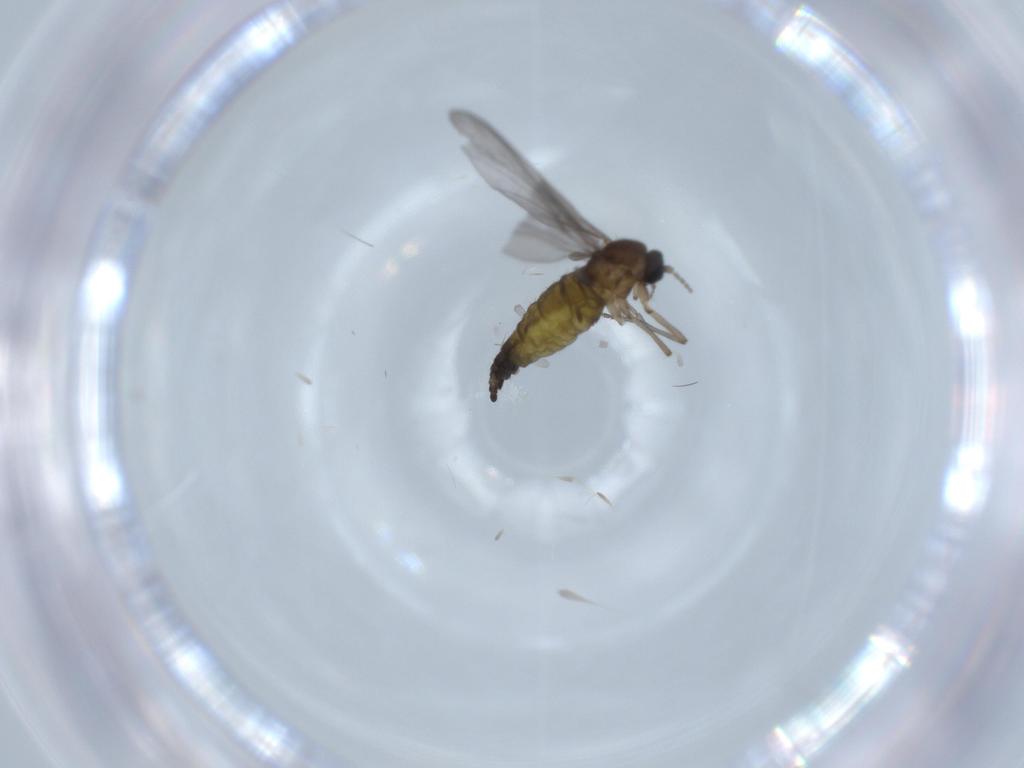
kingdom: Animalia
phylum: Arthropoda
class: Insecta
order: Diptera
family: Sciaridae
